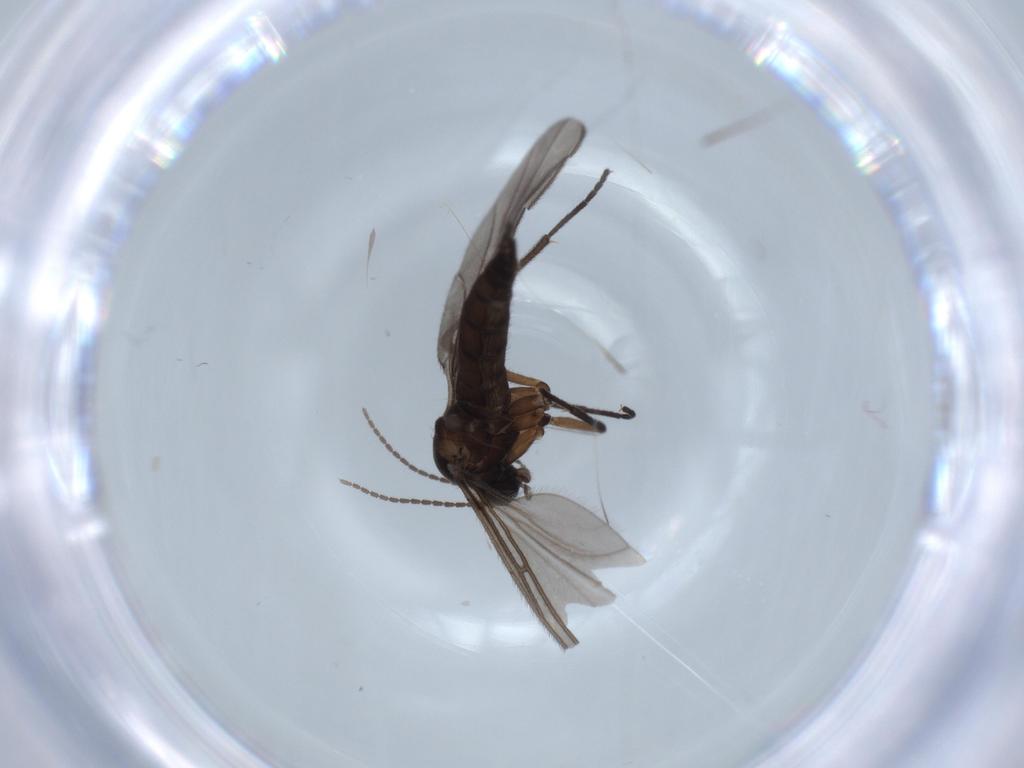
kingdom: Animalia
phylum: Arthropoda
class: Insecta
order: Diptera
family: Sciaridae
